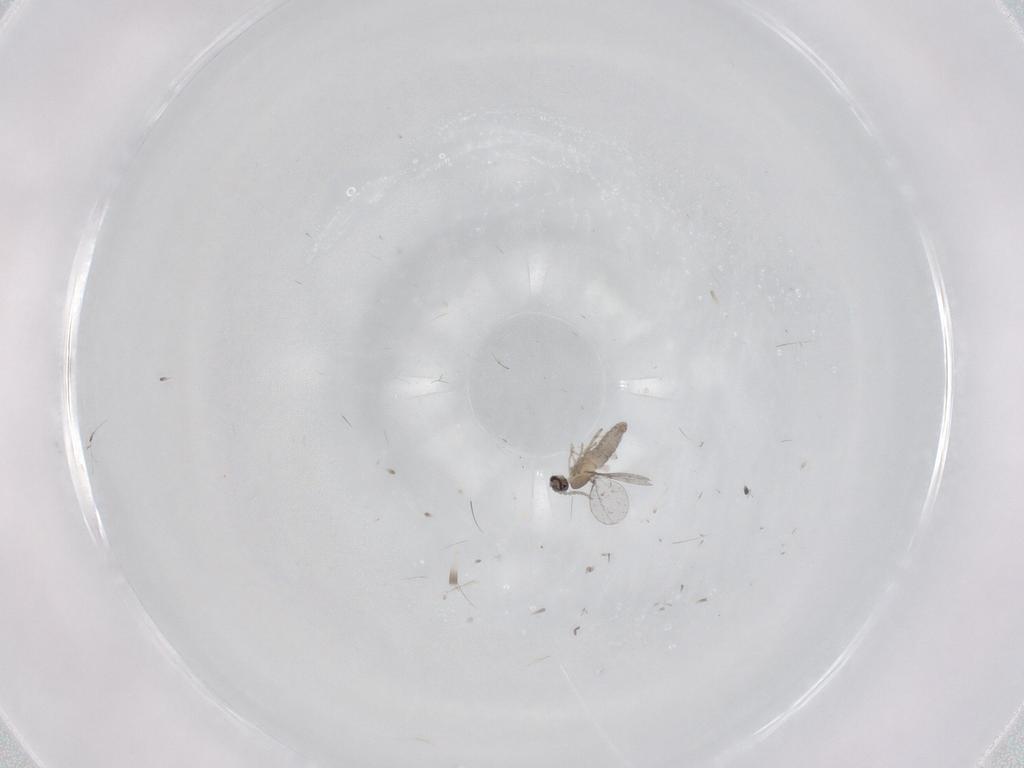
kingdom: Animalia
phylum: Arthropoda
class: Insecta
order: Diptera
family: Cecidomyiidae
